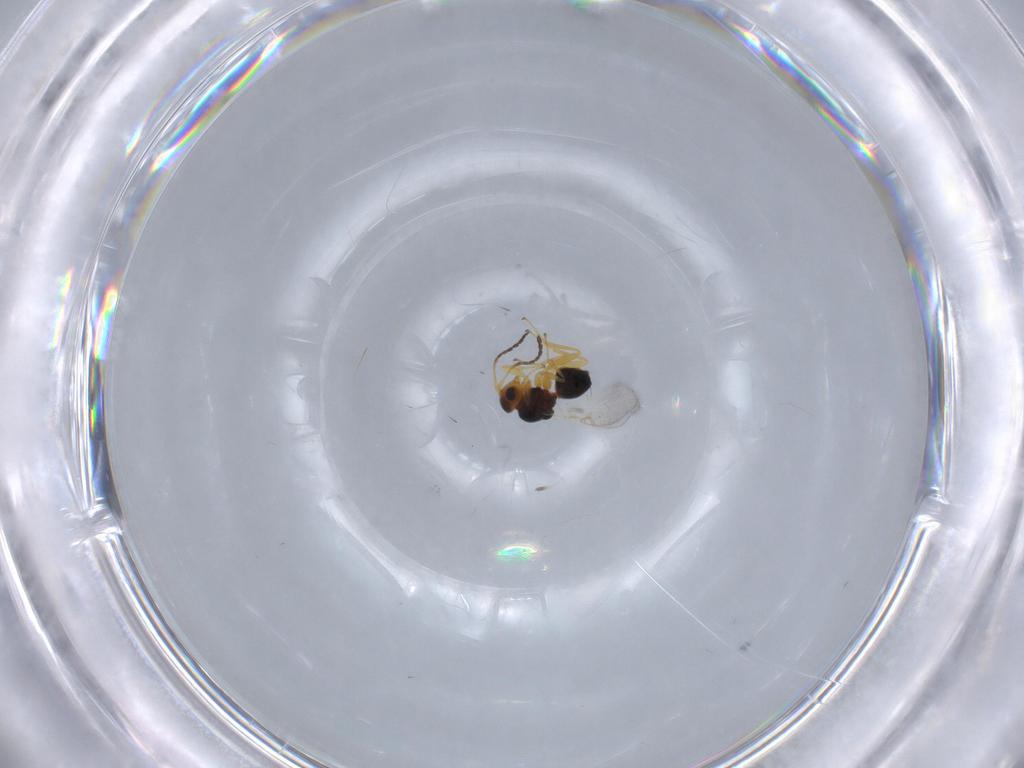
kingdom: Animalia
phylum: Arthropoda
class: Insecta
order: Hymenoptera
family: Figitidae
